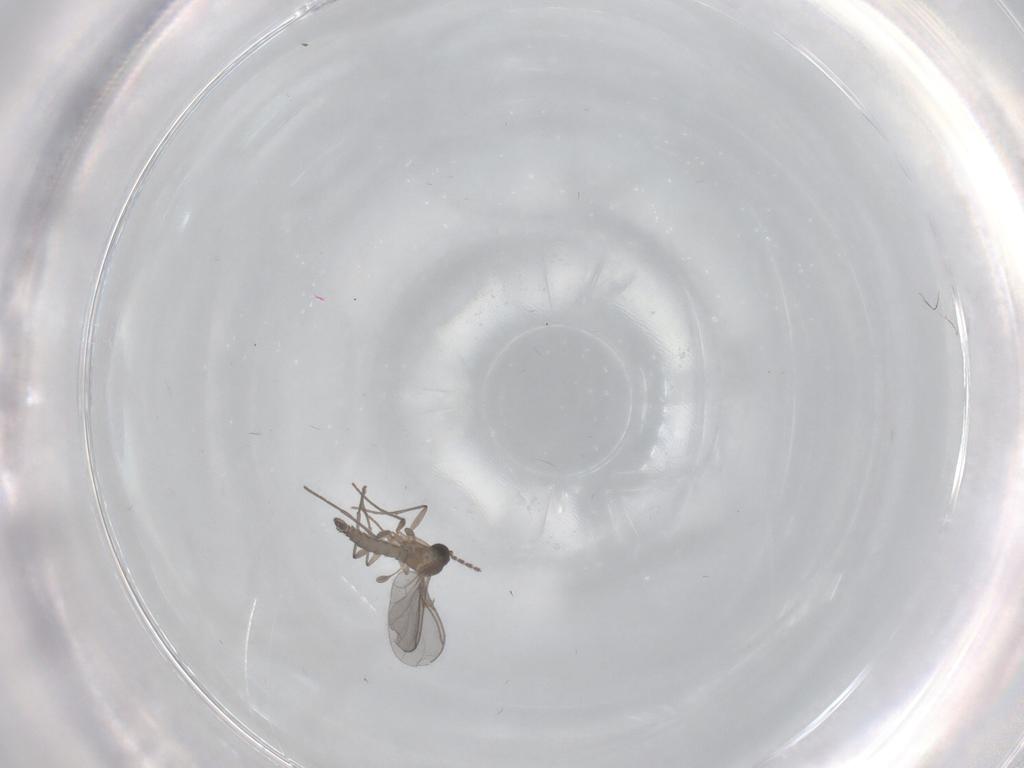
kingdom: Animalia
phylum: Arthropoda
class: Insecta
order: Diptera
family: Sciaridae
